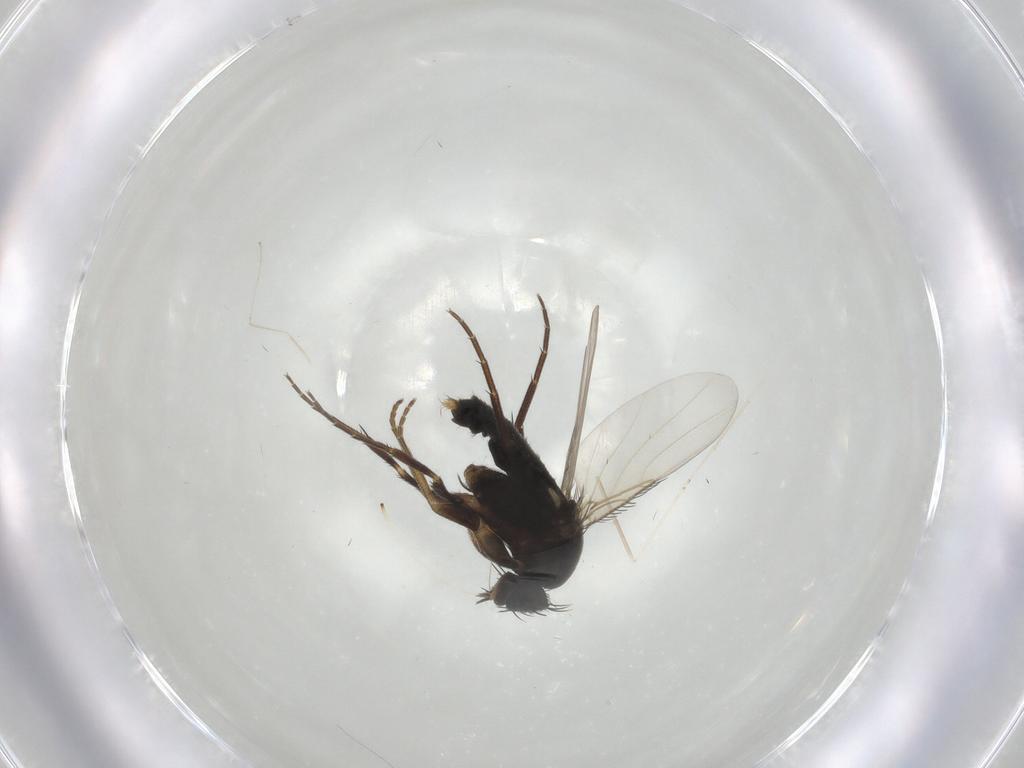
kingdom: Animalia
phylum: Arthropoda
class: Insecta
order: Diptera
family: Phoridae
